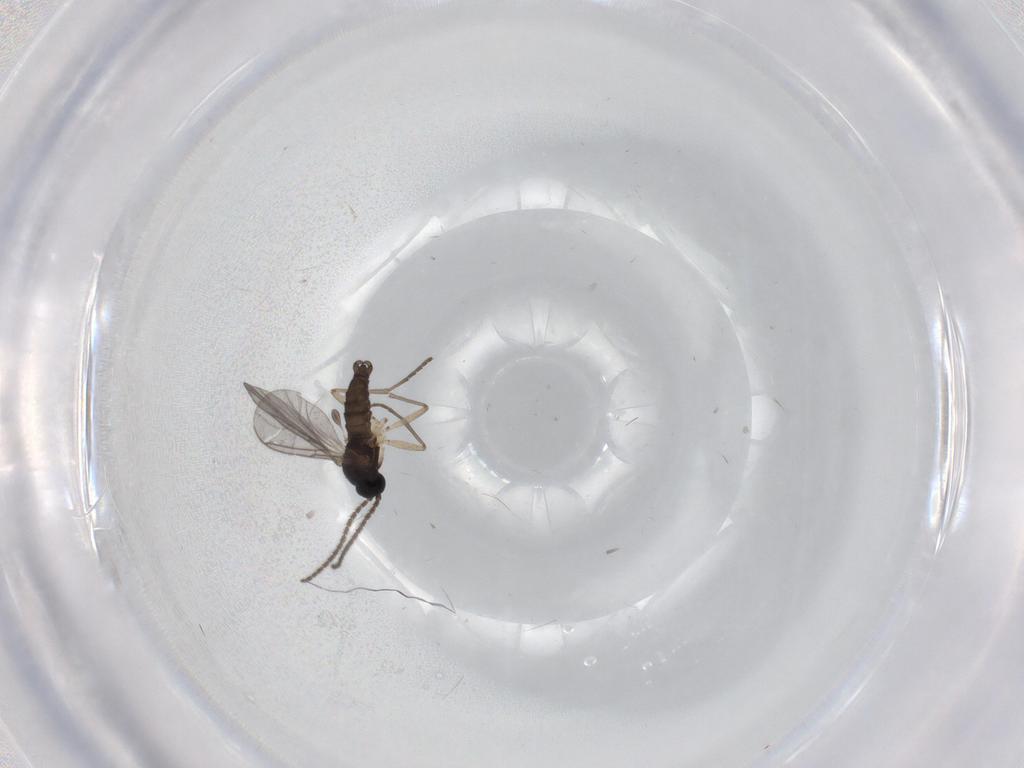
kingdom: Animalia
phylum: Arthropoda
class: Insecta
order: Diptera
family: Sciaridae
